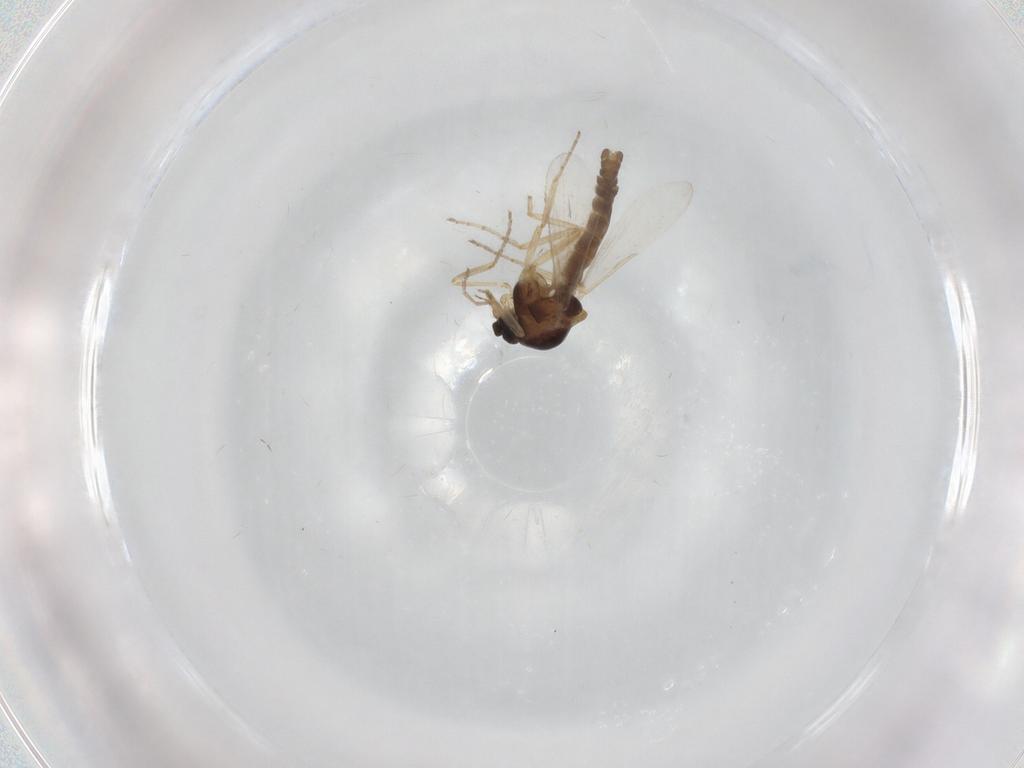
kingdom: Animalia
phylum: Arthropoda
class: Insecta
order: Diptera
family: Ceratopogonidae
